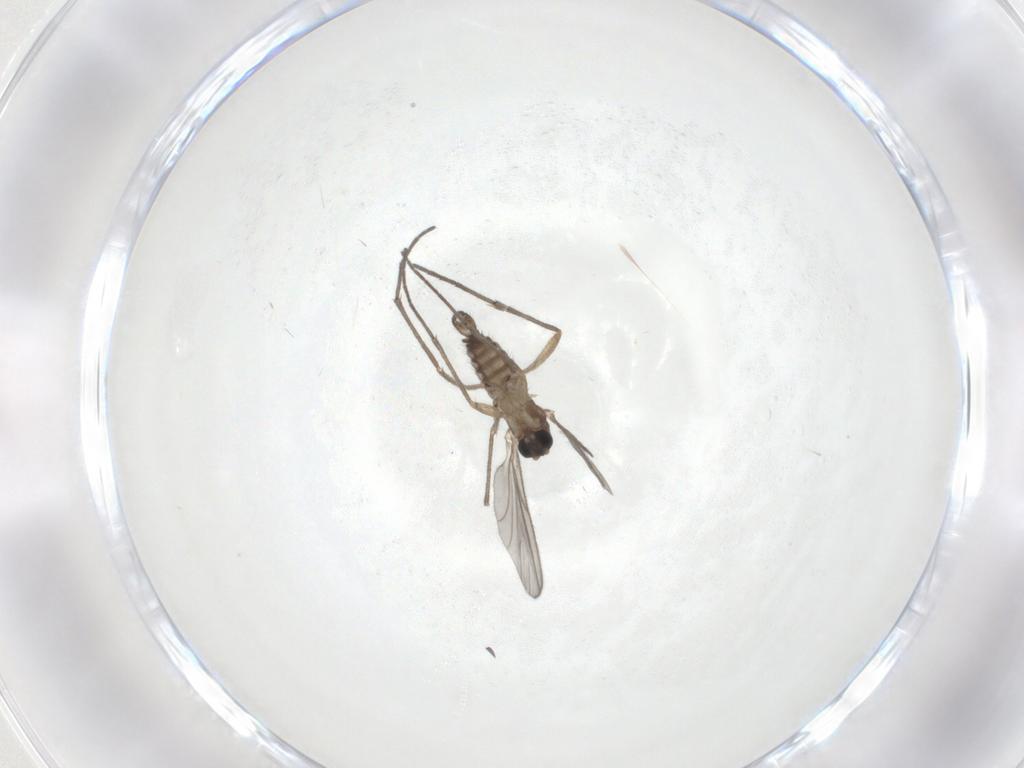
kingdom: Animalia
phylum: Arthropoda
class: Insecta
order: Diptera
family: Sciaridae
